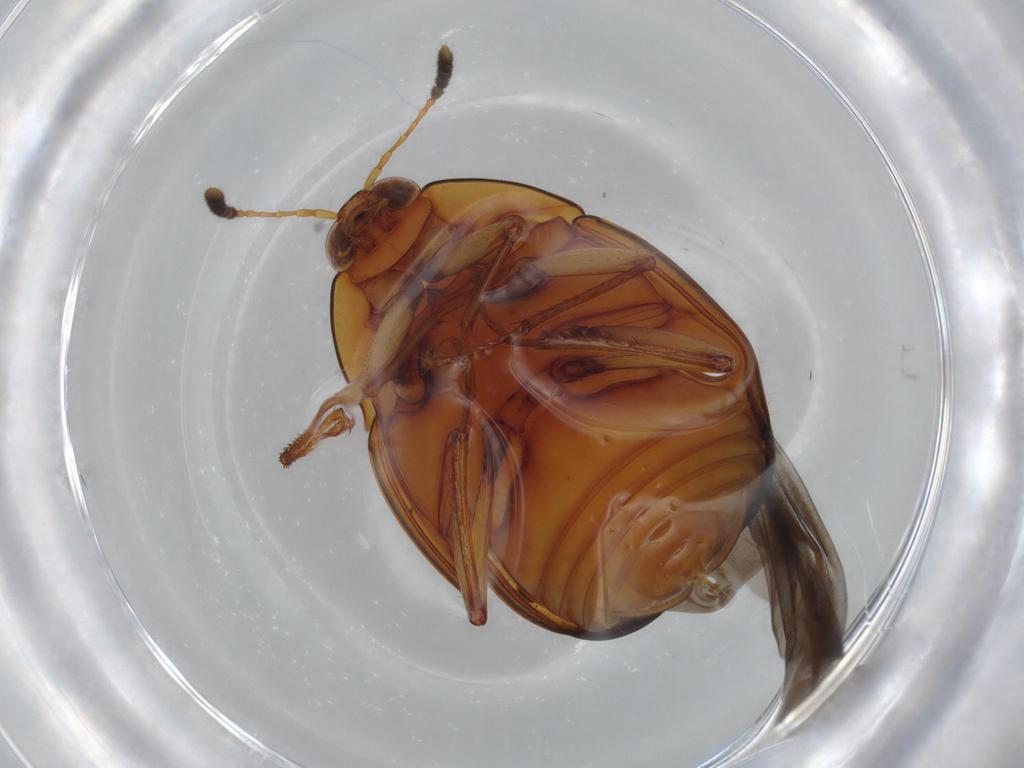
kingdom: Animalia
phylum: Arthropoda
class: Insecta
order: Coleoptera
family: Staphylinidae
